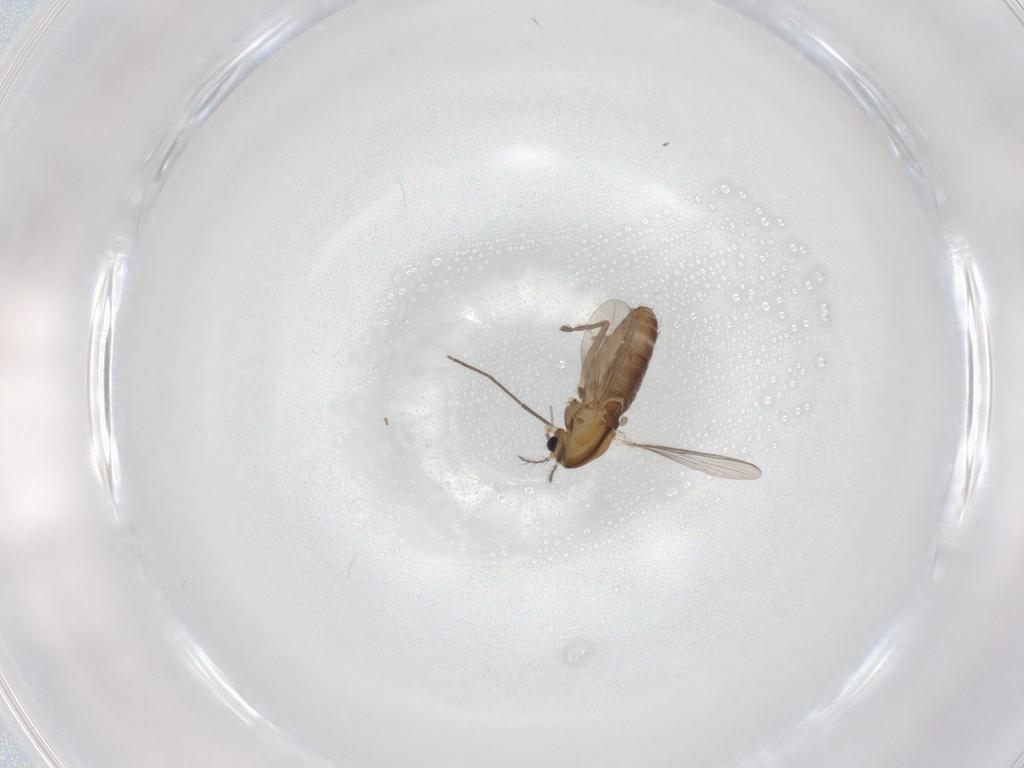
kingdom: Animalia
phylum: Arthropoda
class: Insecta
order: Diptera
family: Chironomidae
